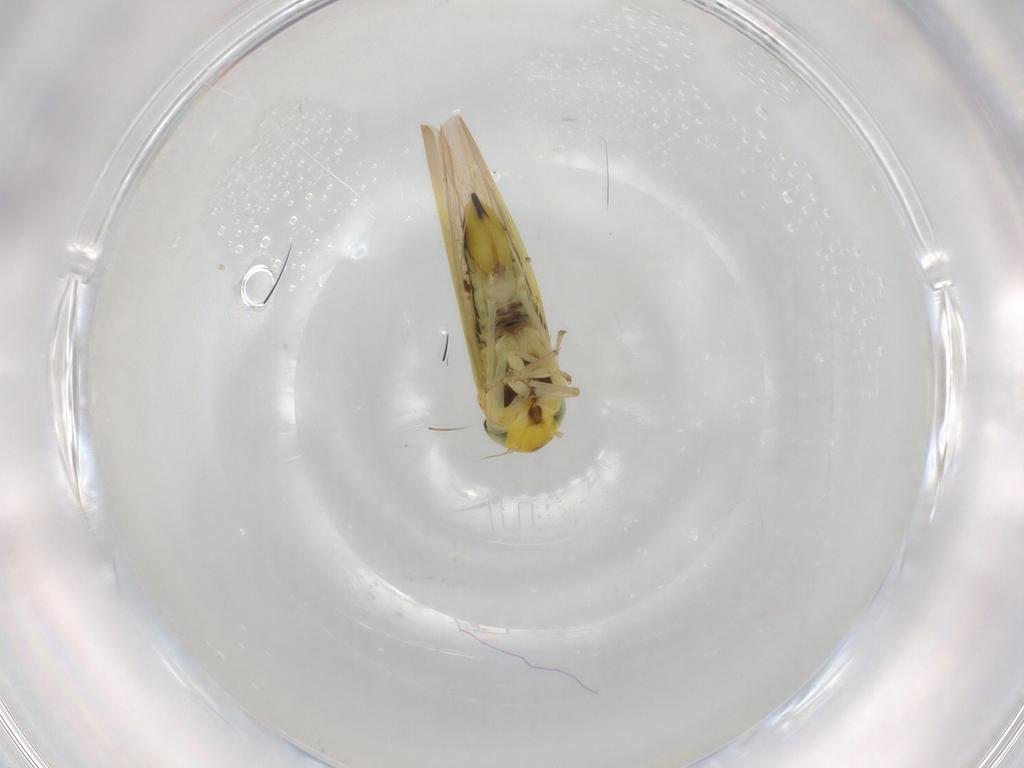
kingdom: Animalia
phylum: Arthropoda
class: Insecta
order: Hemiptera
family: Cicadellidae
